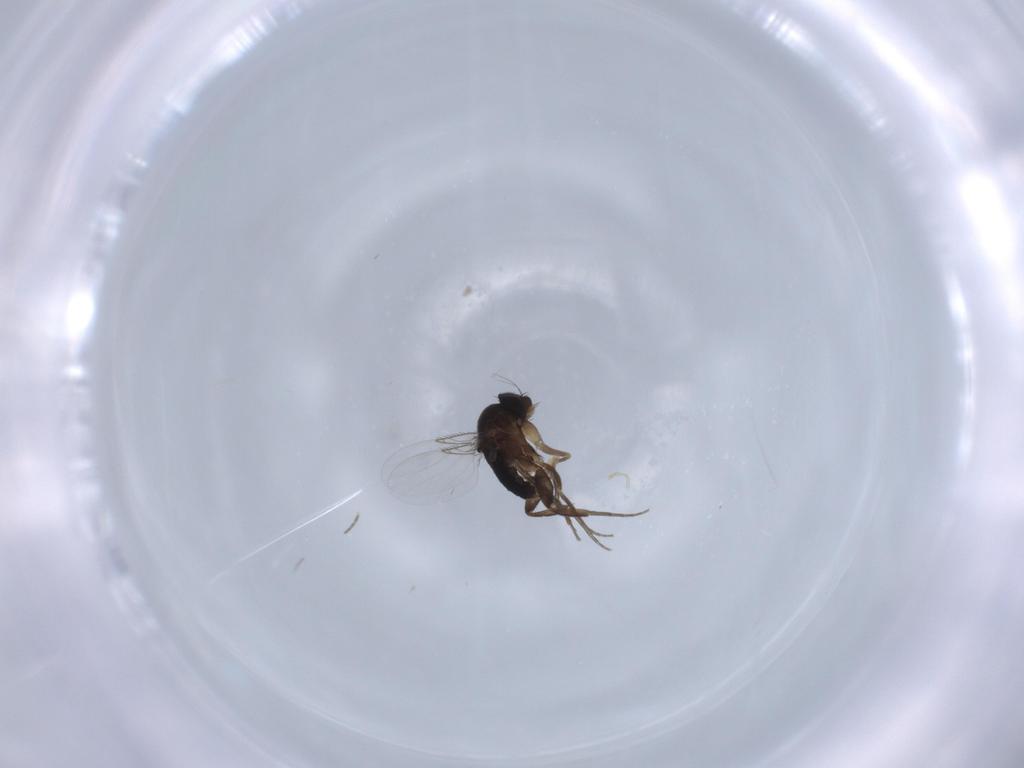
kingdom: Animalia
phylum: Arthropoda
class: Insecta
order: Diptera
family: Phoridae
